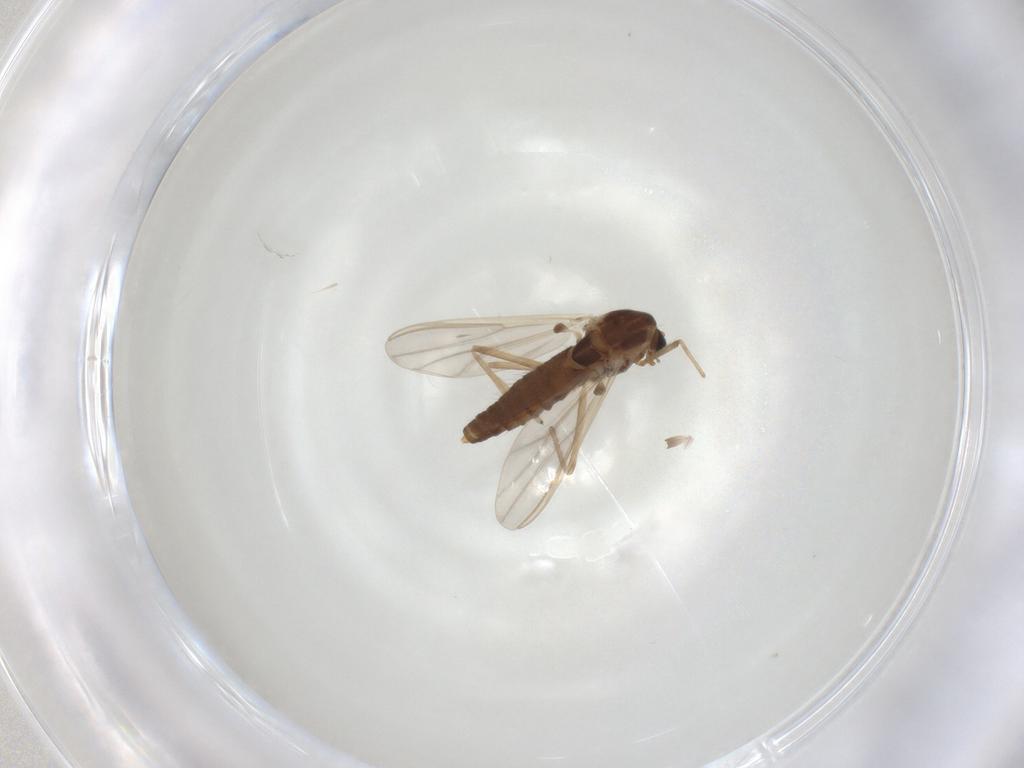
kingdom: Animalia
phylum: Arthropoda
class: Insecta
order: Diptera
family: Chironomidae
